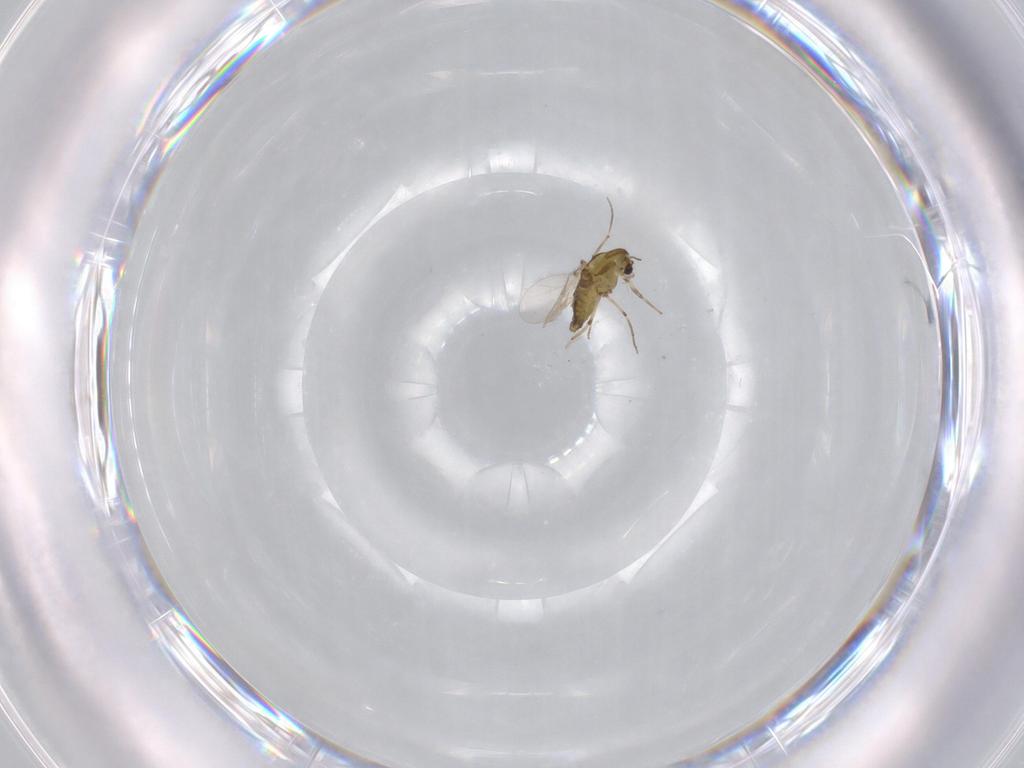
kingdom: Animalia
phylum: Arthropoda
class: Insecta
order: Diptera
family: Chironomidae
